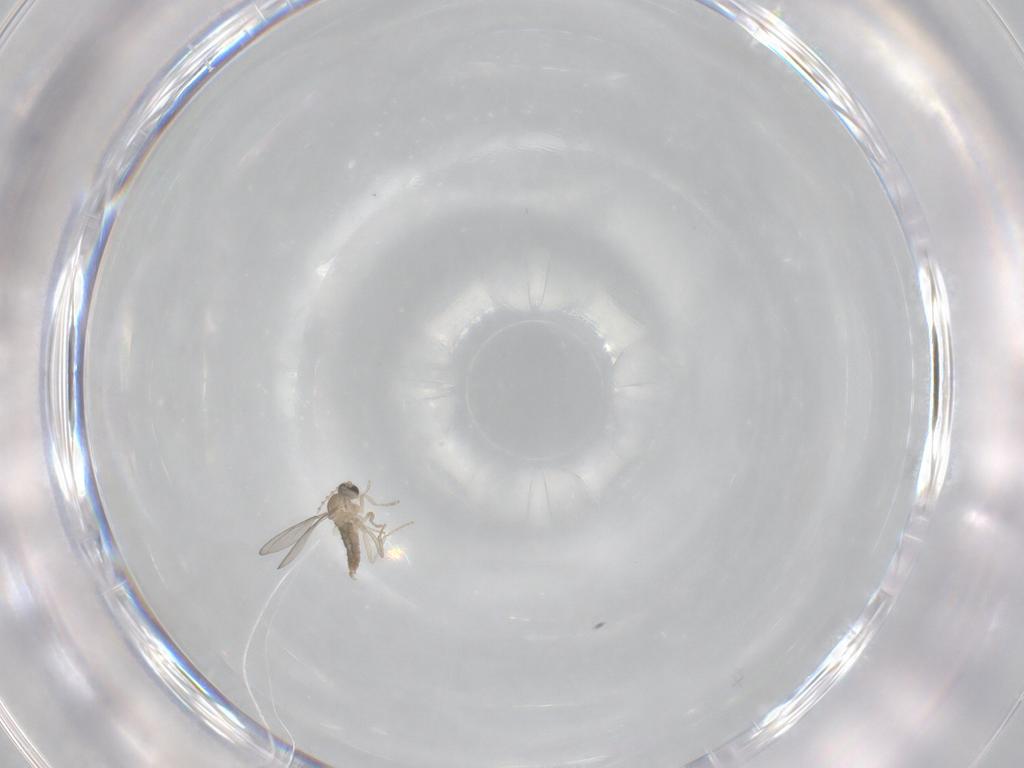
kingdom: Animalia
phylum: Arthropoda
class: Insecta
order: Diptera
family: Cecidomyiidae
